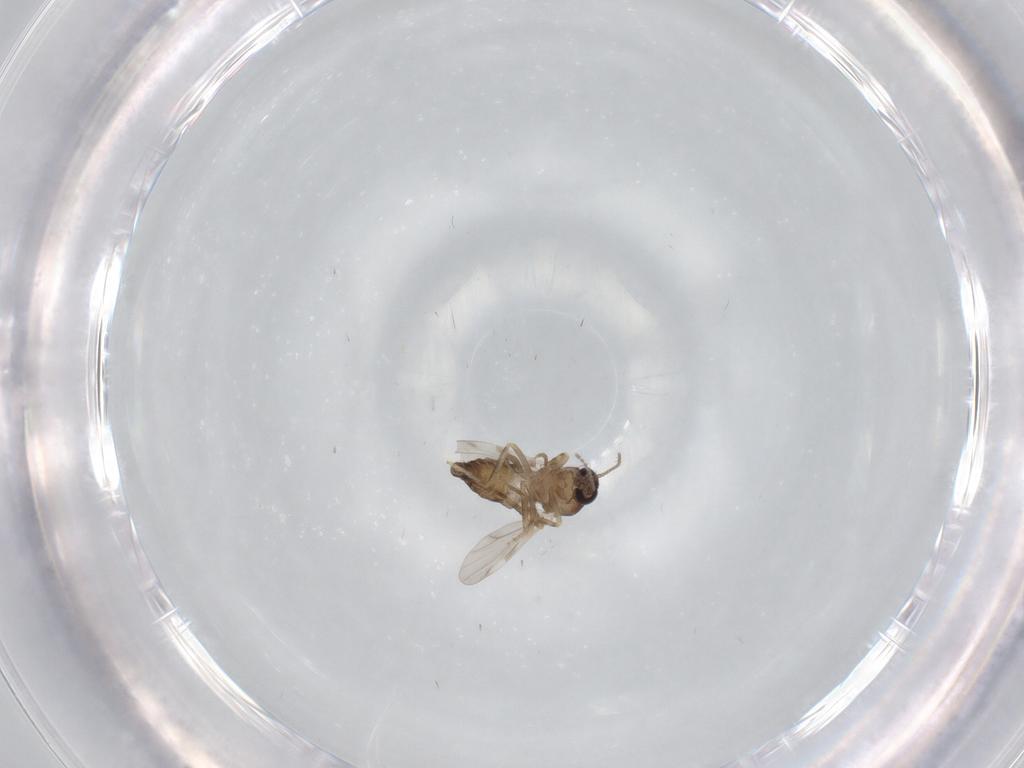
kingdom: Animalia
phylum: Arthropoda
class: Insecta
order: Diptera
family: Ceratopogonidae
